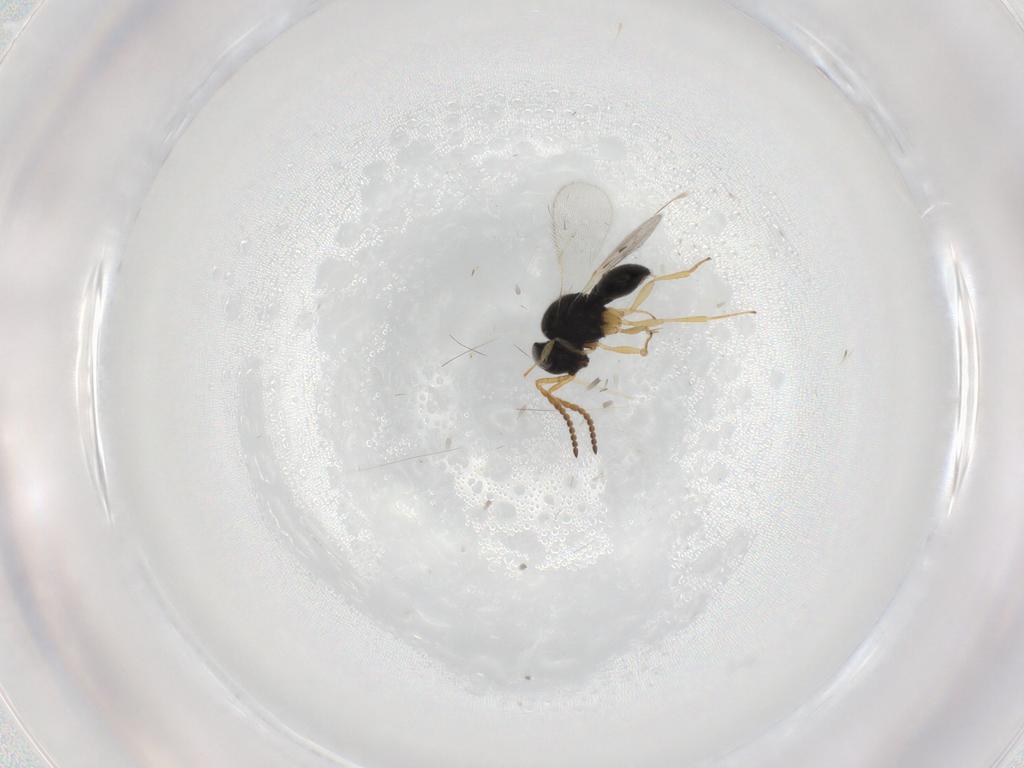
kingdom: Animalia
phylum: Arthropoda
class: Insecta
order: Hymenoptera
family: Scelionidae
